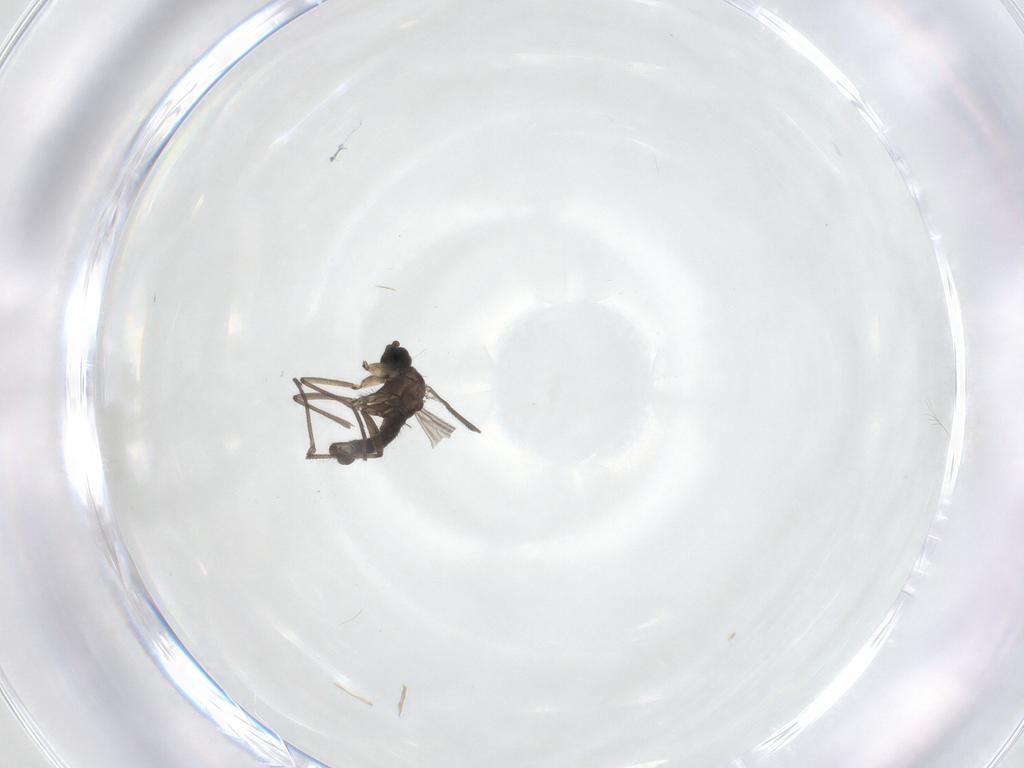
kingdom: Animalia
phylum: Arthropoda
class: Insecta
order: Diptera
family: Sciaridae
